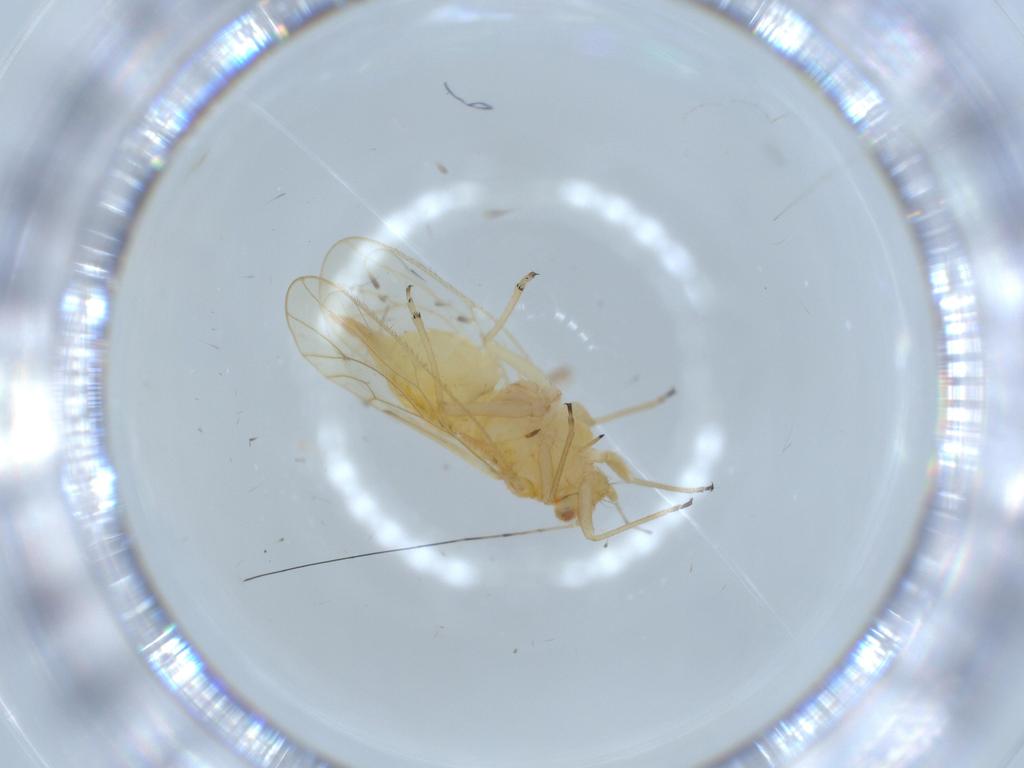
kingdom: Animalia
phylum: Arthropoda
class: Insecta
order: Hemiptera
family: Psyllidae
